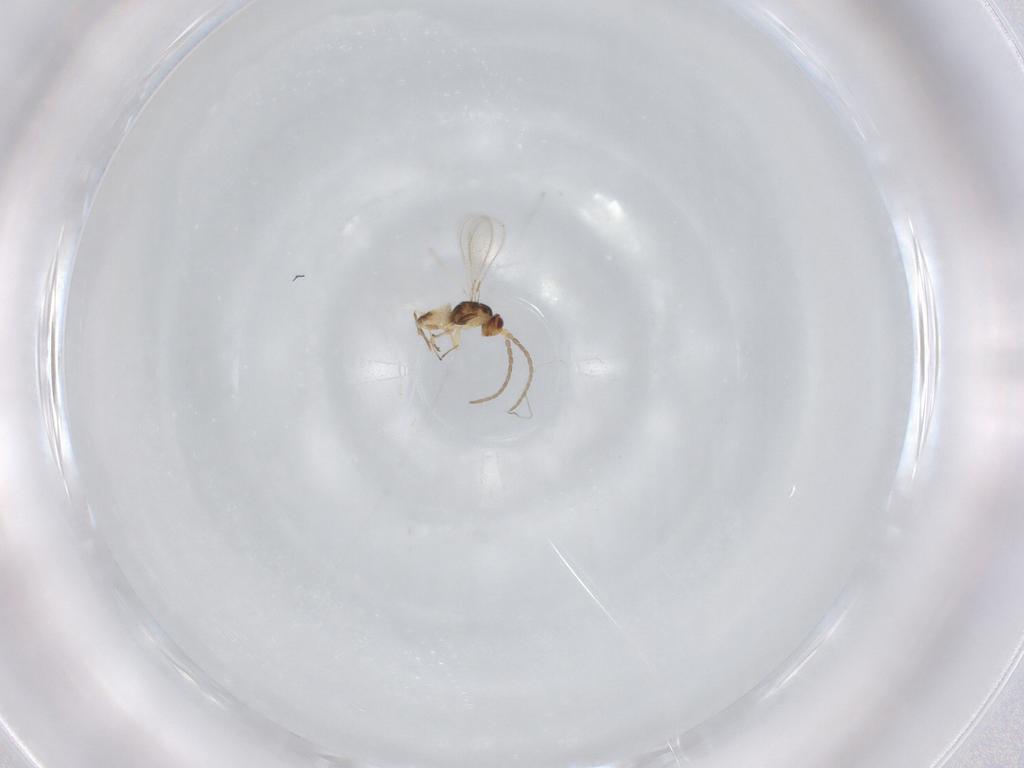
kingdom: Animalia
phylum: Arthropoda
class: Insecta
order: Hymenoptera
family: Mymaridae
